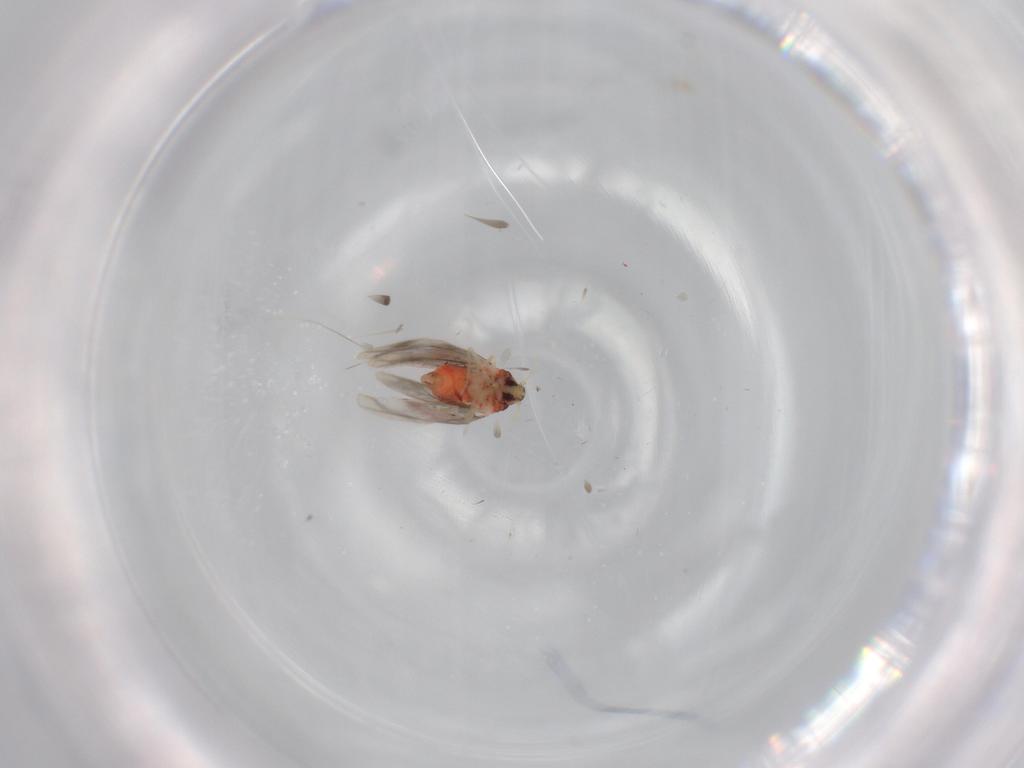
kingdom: Animalia
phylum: Arthropoda
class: Insecta
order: Hemiptera
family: Aleyrodidae
